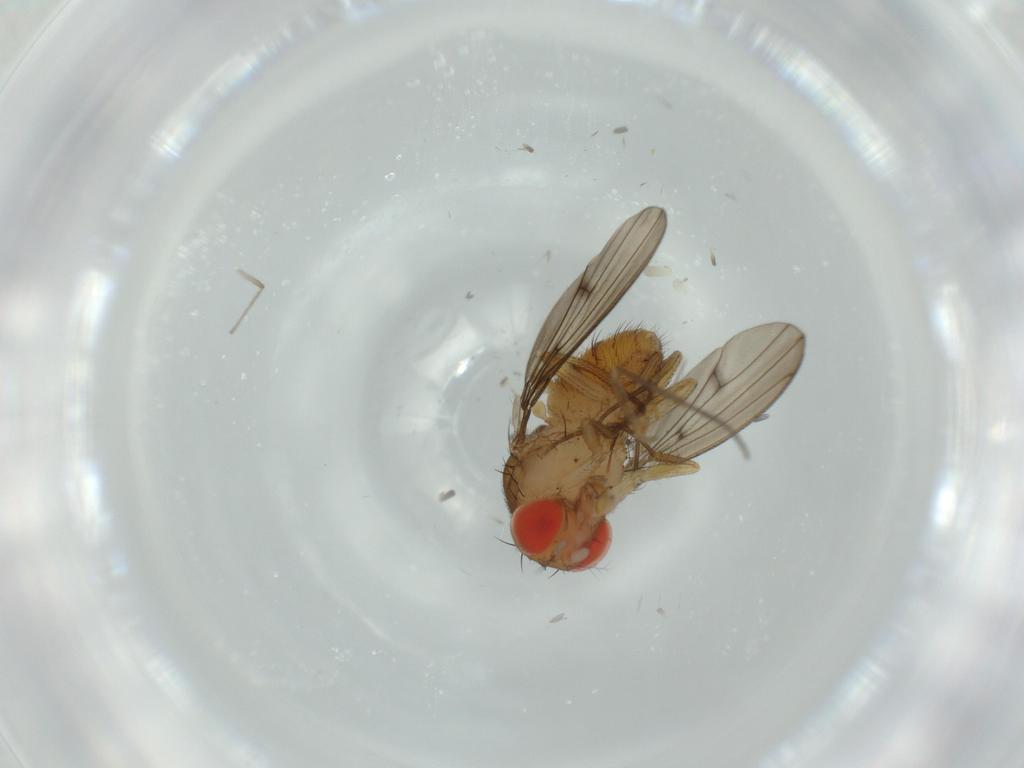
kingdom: Animalia
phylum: Arthropoda
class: Insecta
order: Diptera
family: Drosophilidae
